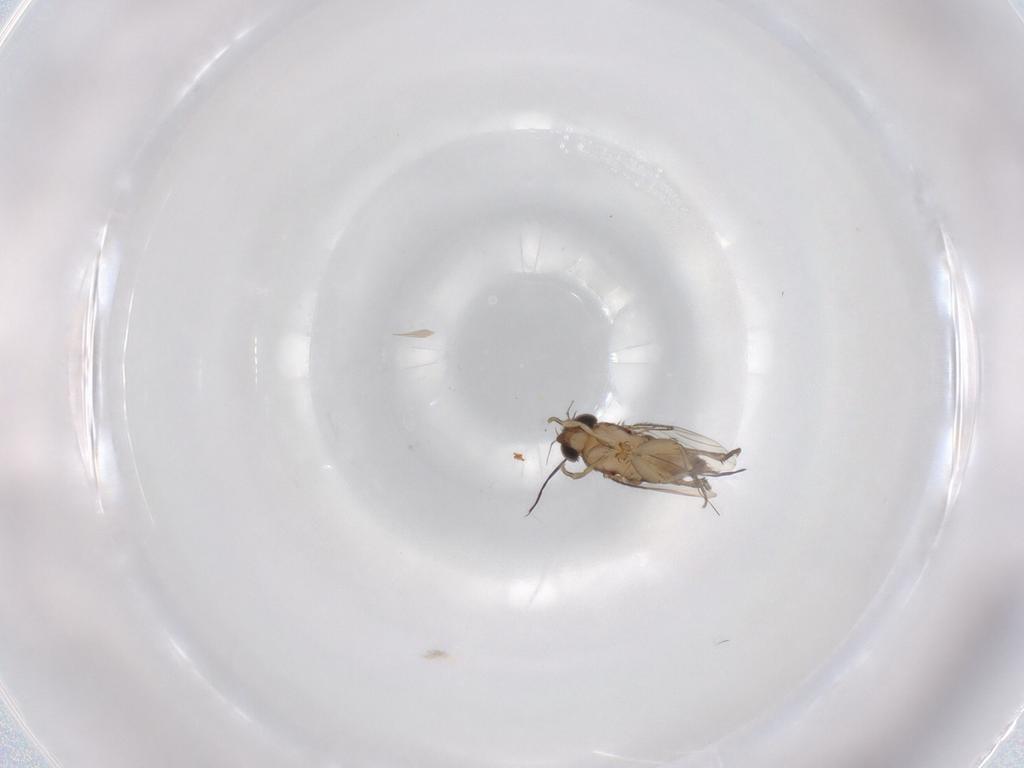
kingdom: Animalia
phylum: Arthropoda
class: Insecta
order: Diptera
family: Phoridae
